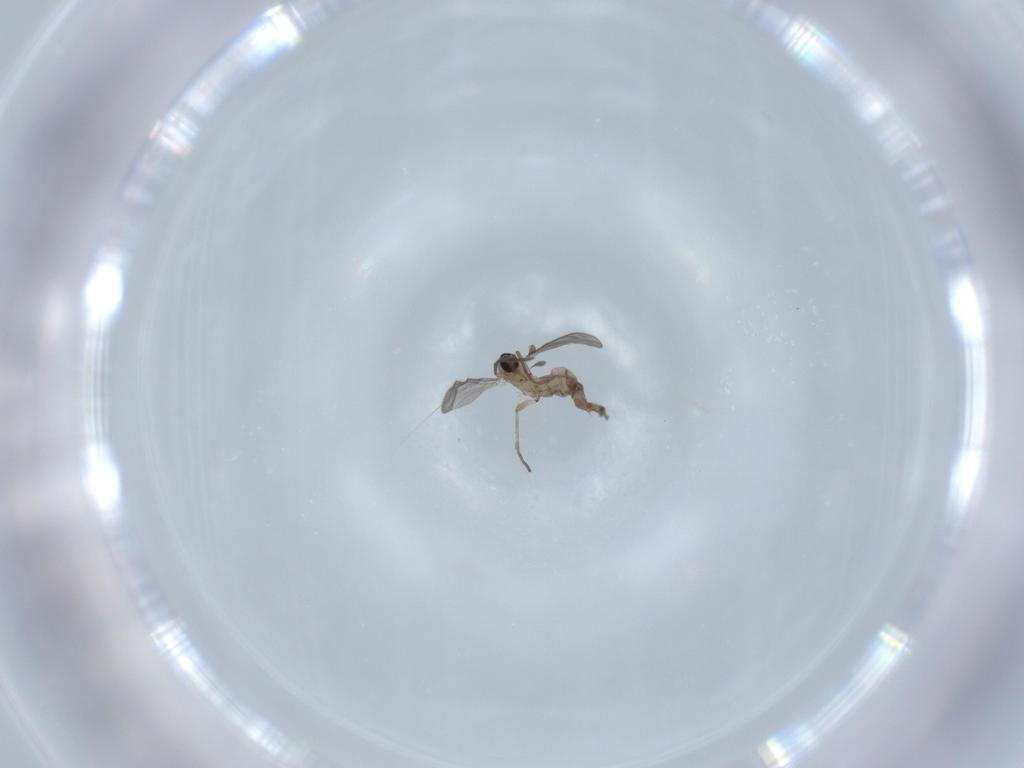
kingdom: Animalia
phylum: Arthropoda
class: Insecta
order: Diptera
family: Sciaridae
